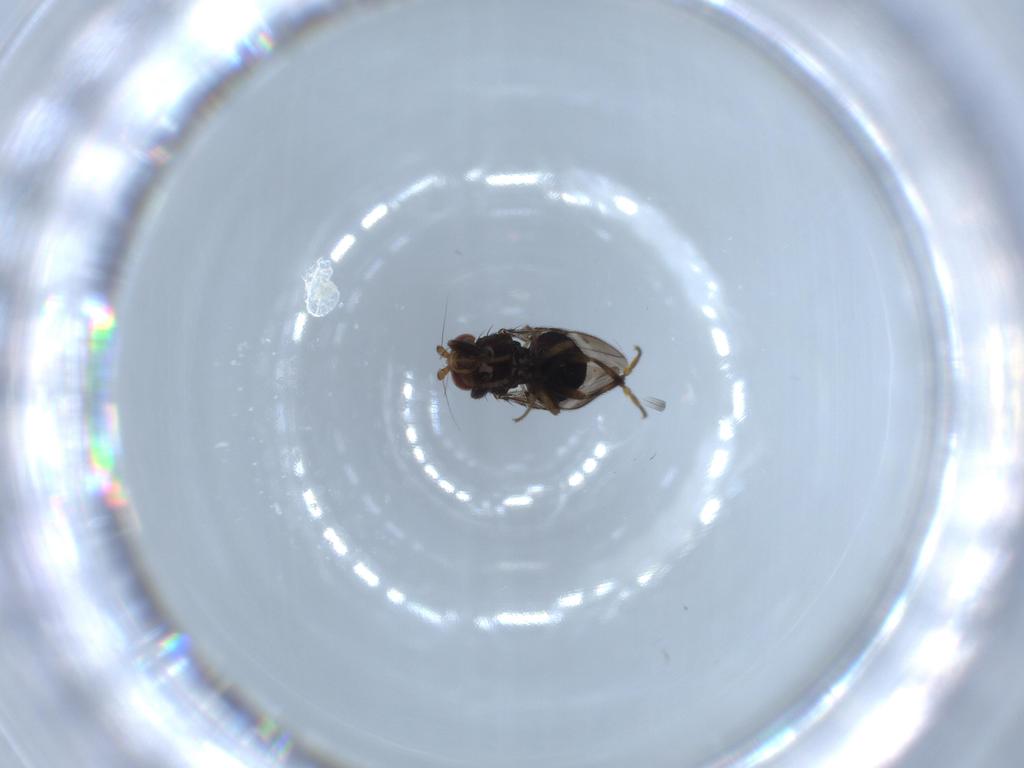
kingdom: Animalia
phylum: Arthropoda
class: Insecta
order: Diptera
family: Sphaeroceridae
